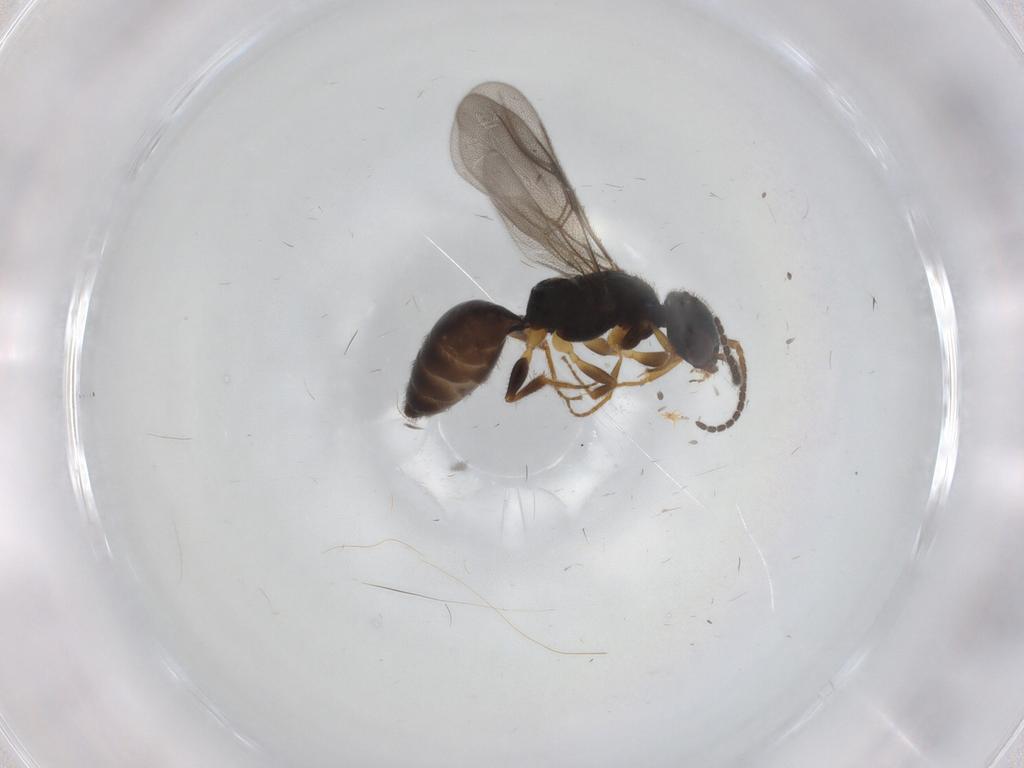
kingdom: Animalia
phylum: Arthropoda
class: Insecta
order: Hymenoptera
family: Bethylidae
